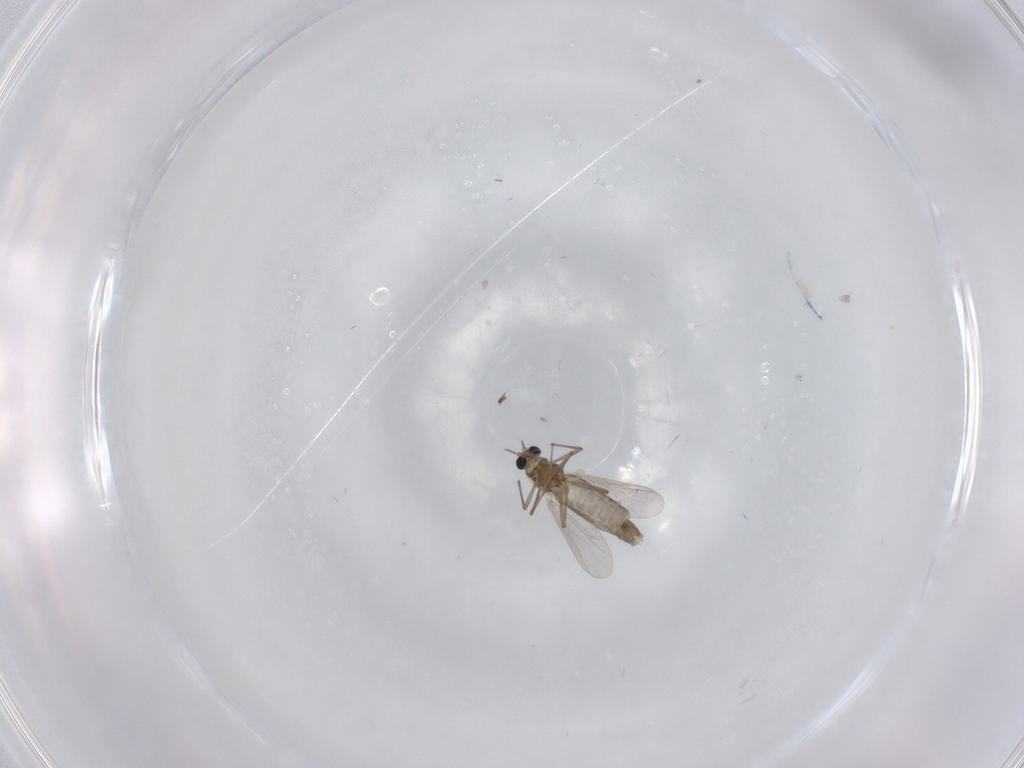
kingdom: Animalia
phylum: Arthropoda
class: Insecta
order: Diptera
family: Chironomidae
